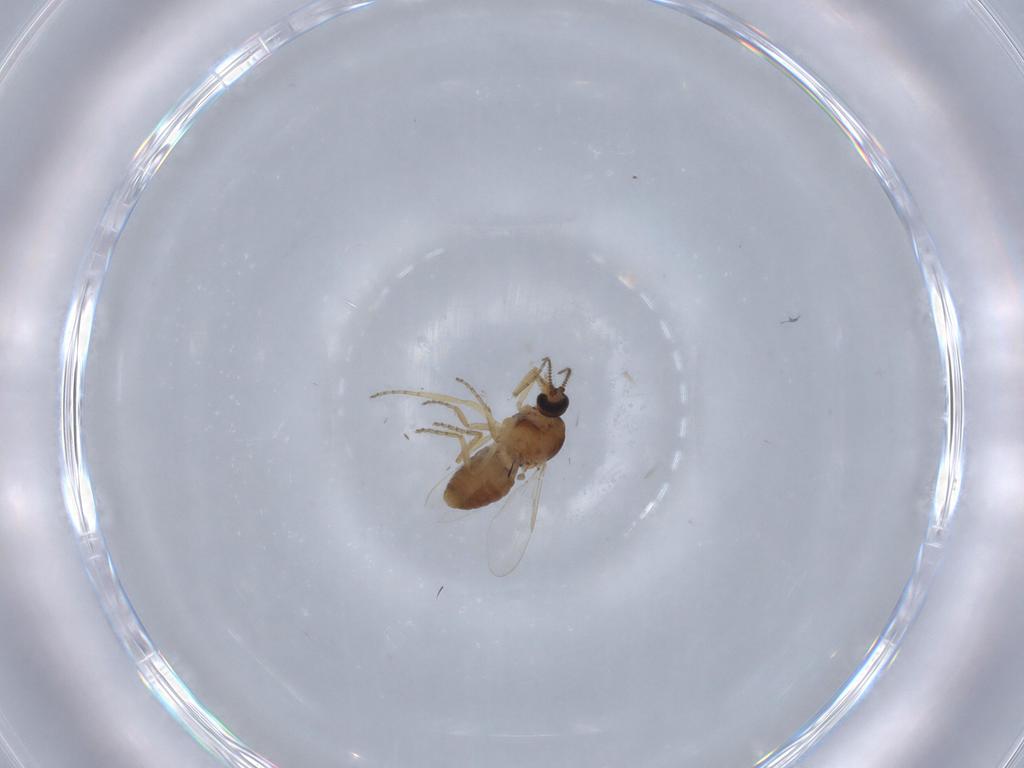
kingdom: Animalia
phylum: Arthropoda
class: Insecta
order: Diptera
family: Ceratopogonidae
